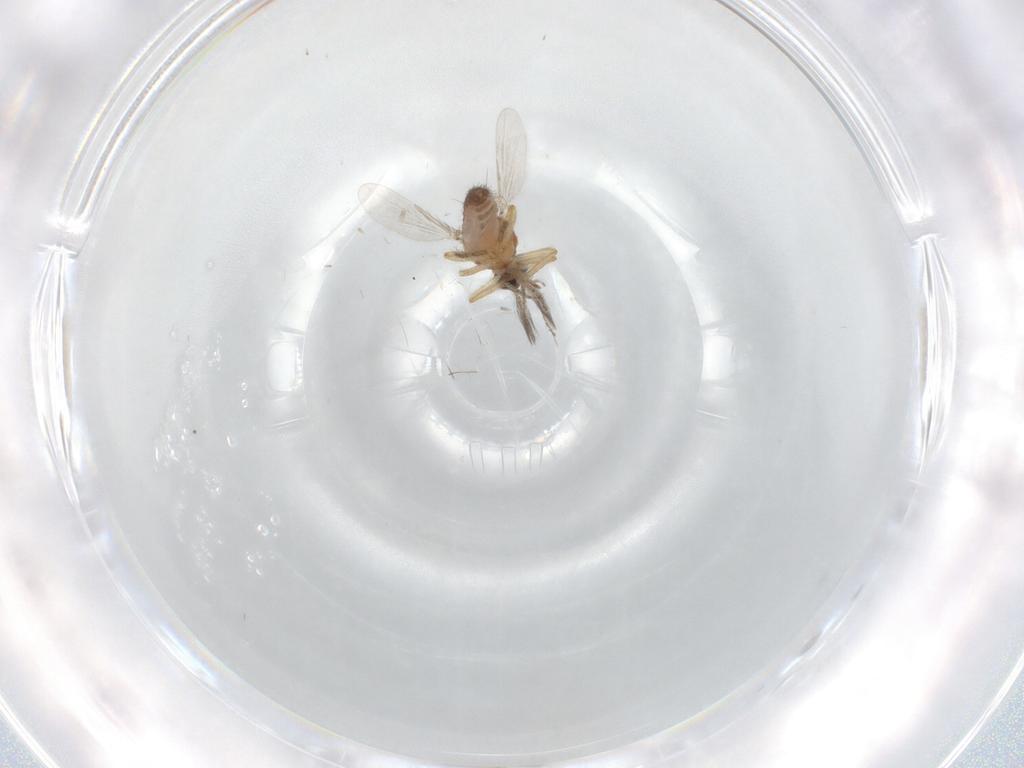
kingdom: Animalia
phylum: Arthropoda
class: Insecta
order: Diptera
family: Ceratopogonidae
